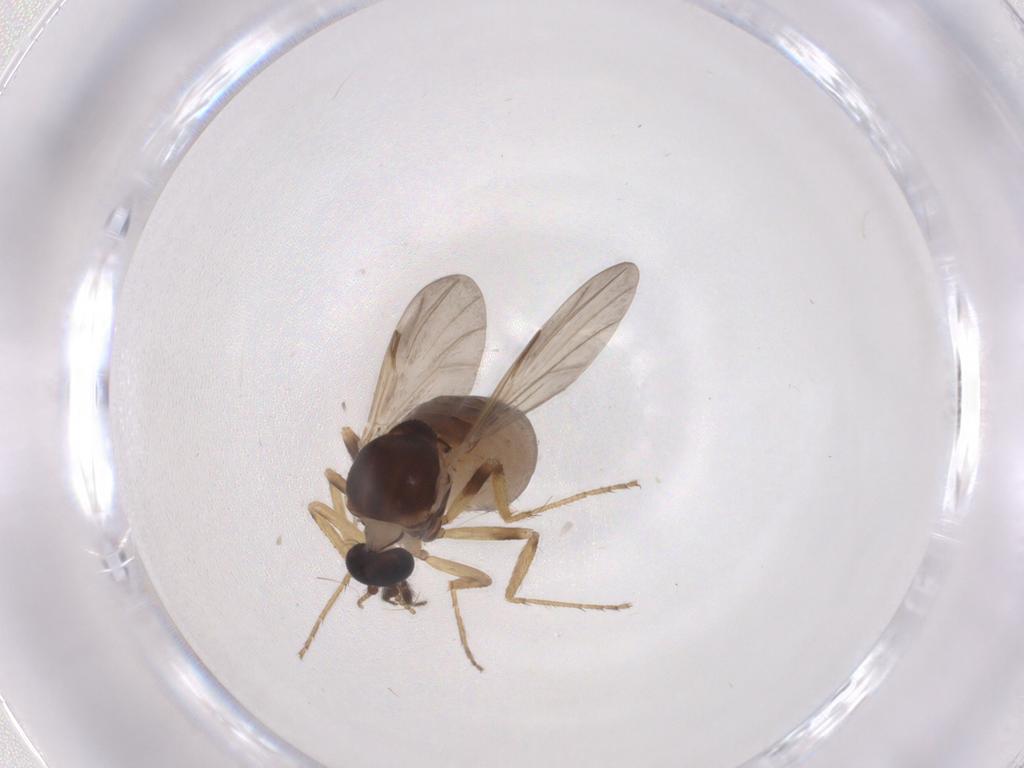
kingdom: Animalia
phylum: Arthropoda
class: Insecta
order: Diptera
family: Ceratopogonidae
